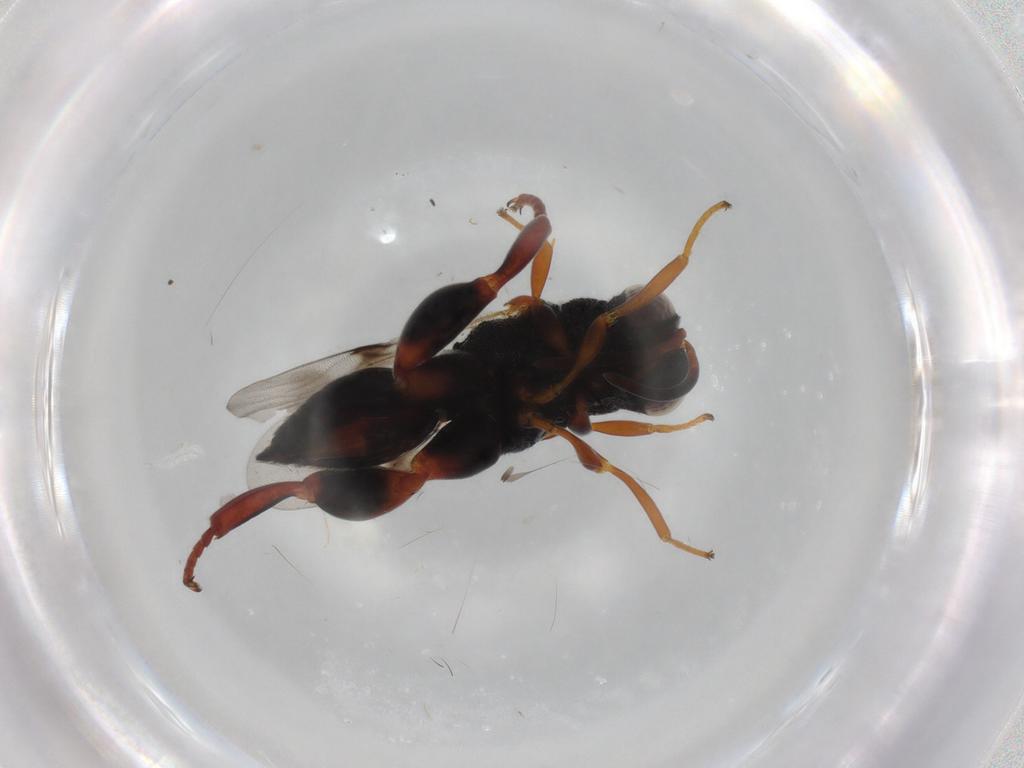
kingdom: Animalia
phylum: Arthropoda
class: Insecta
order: Hymenoptera
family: Chalcididae
